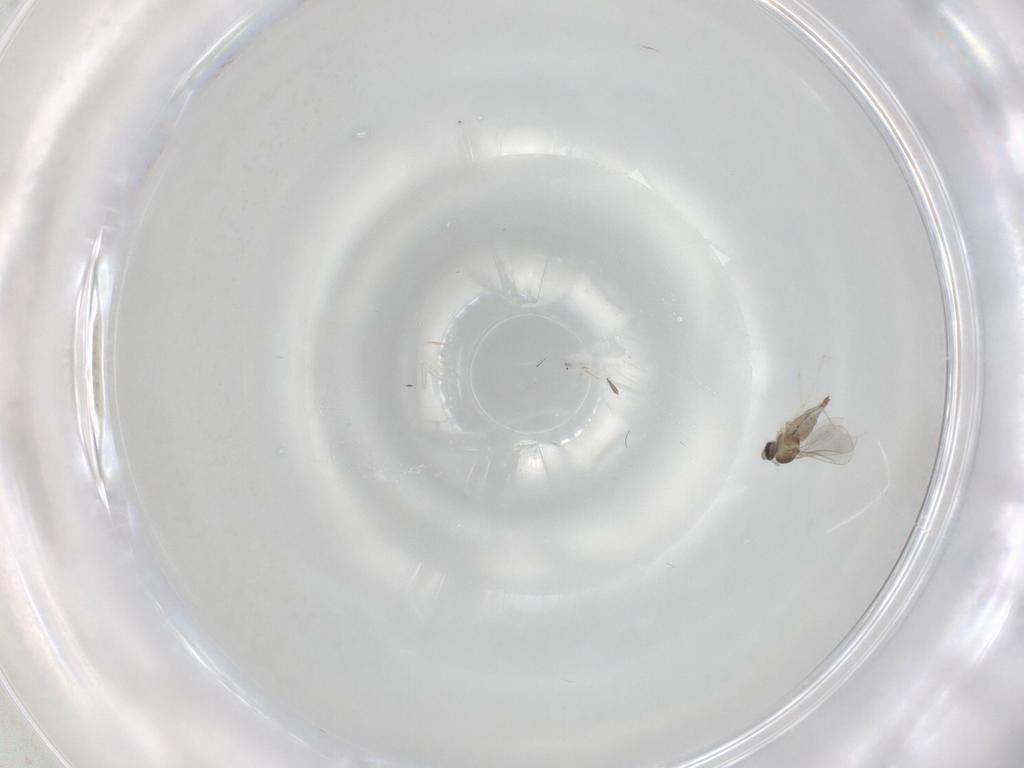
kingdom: Animalia
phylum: Arthropoda
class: Insecta
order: Diptera
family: Cecidomyiidae
